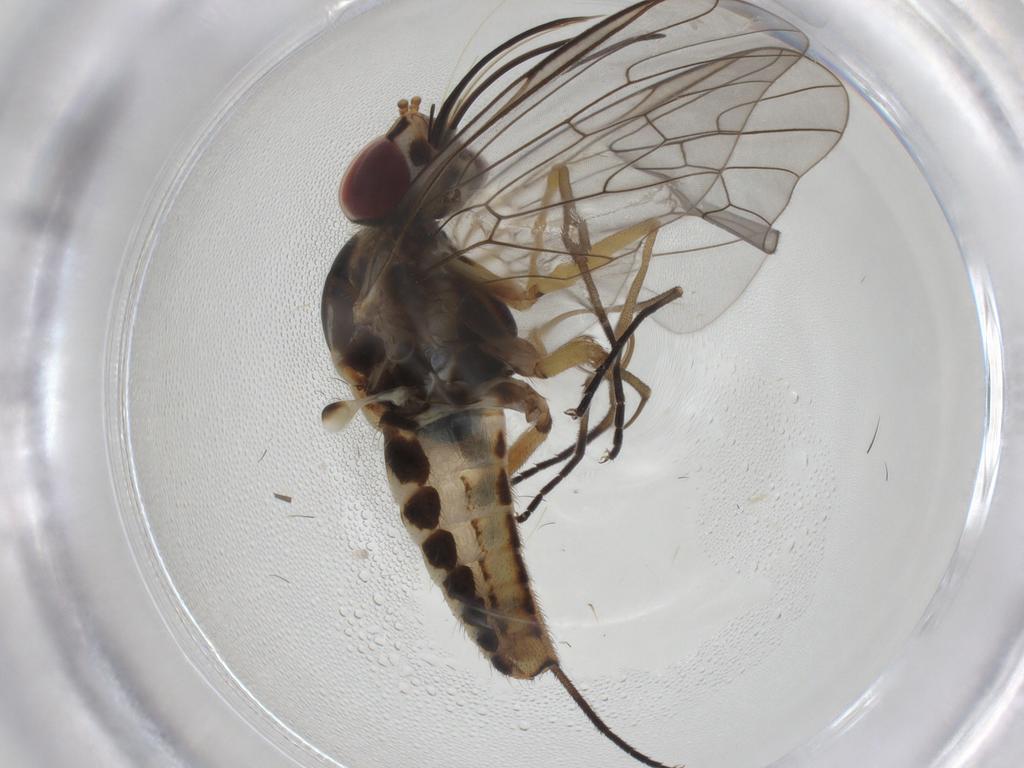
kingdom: Animalia
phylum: Arthropoda
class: Insecta
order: Diptera
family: Bombyliidae
